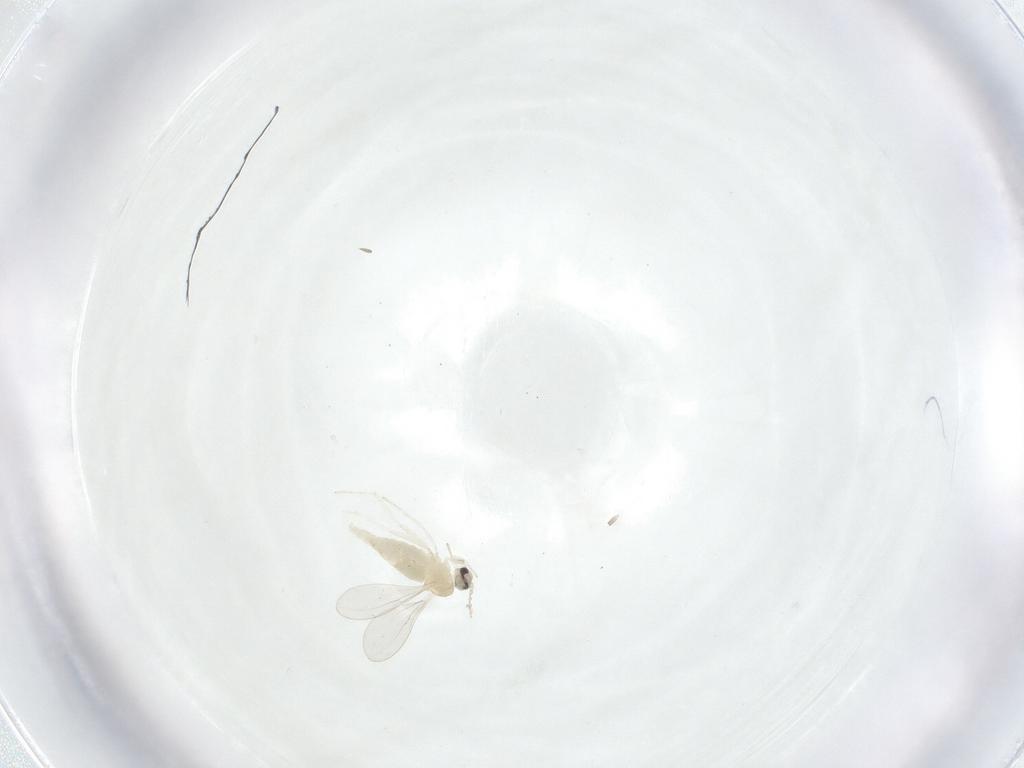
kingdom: Animalia
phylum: Arthropoda
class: Insecta
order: Diptera
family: Cecidomyiidae
